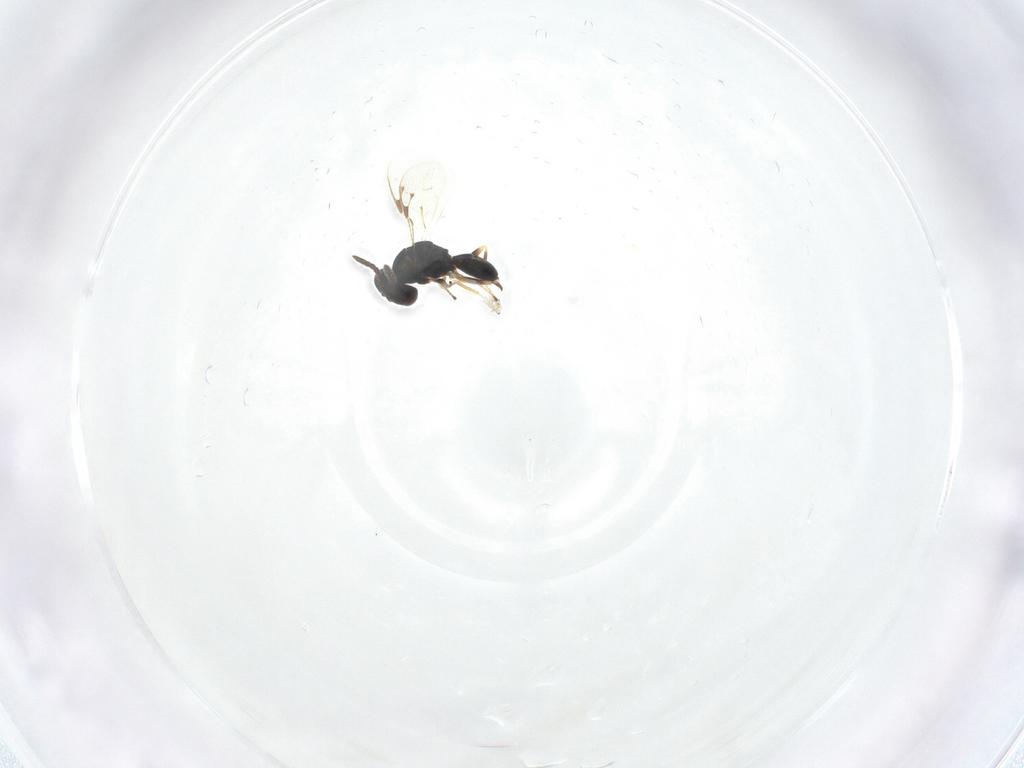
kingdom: Animalia
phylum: Arthropoda
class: Insecta
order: Hymenoptera
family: Pteromalidae
